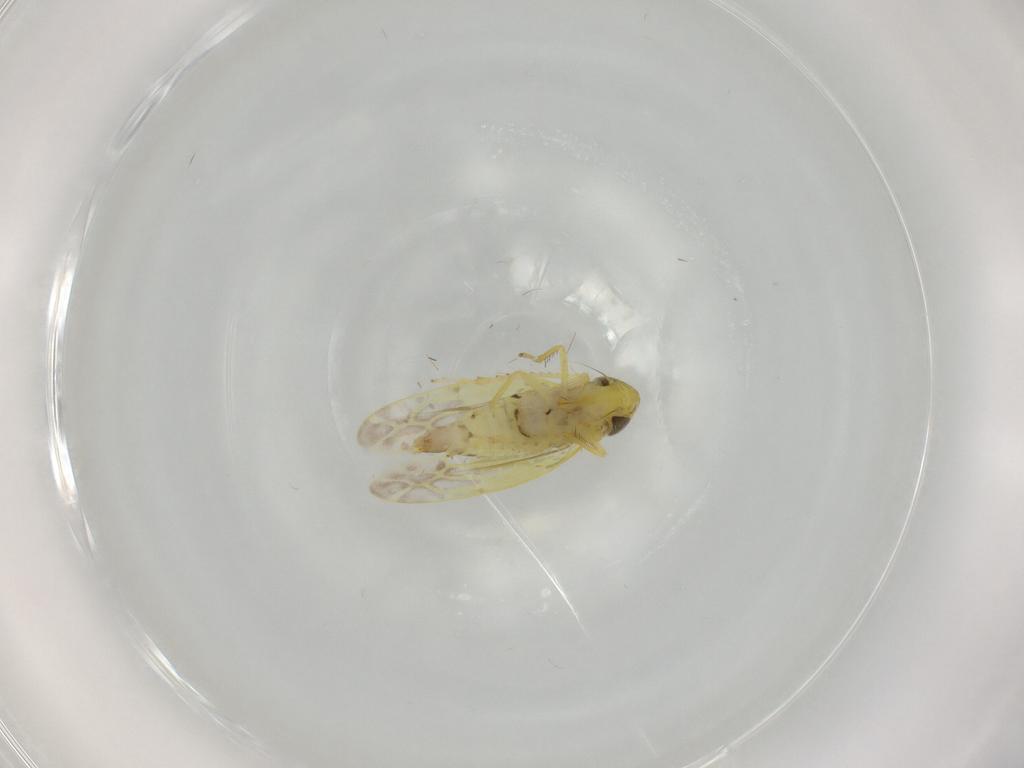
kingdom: Animalia
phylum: Arthropoda
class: Insecta
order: Hemiptera
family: Cicadellidae
